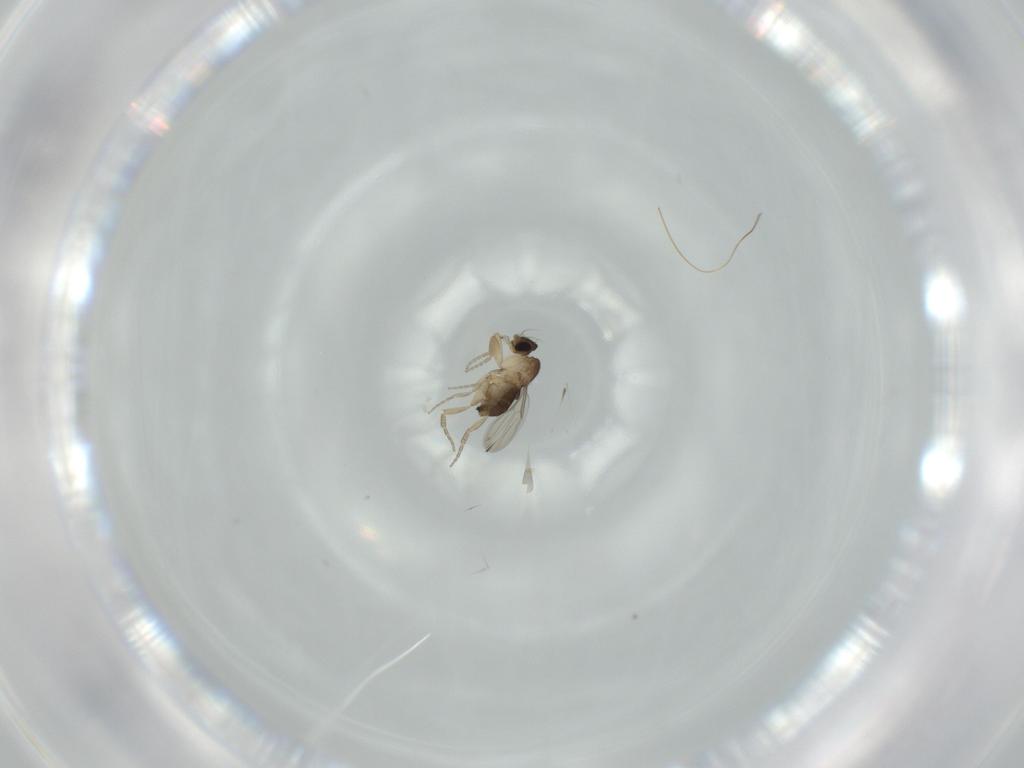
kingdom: Animalia
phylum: Arthropoda
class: Insecta
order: Diptera
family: Phoridae
